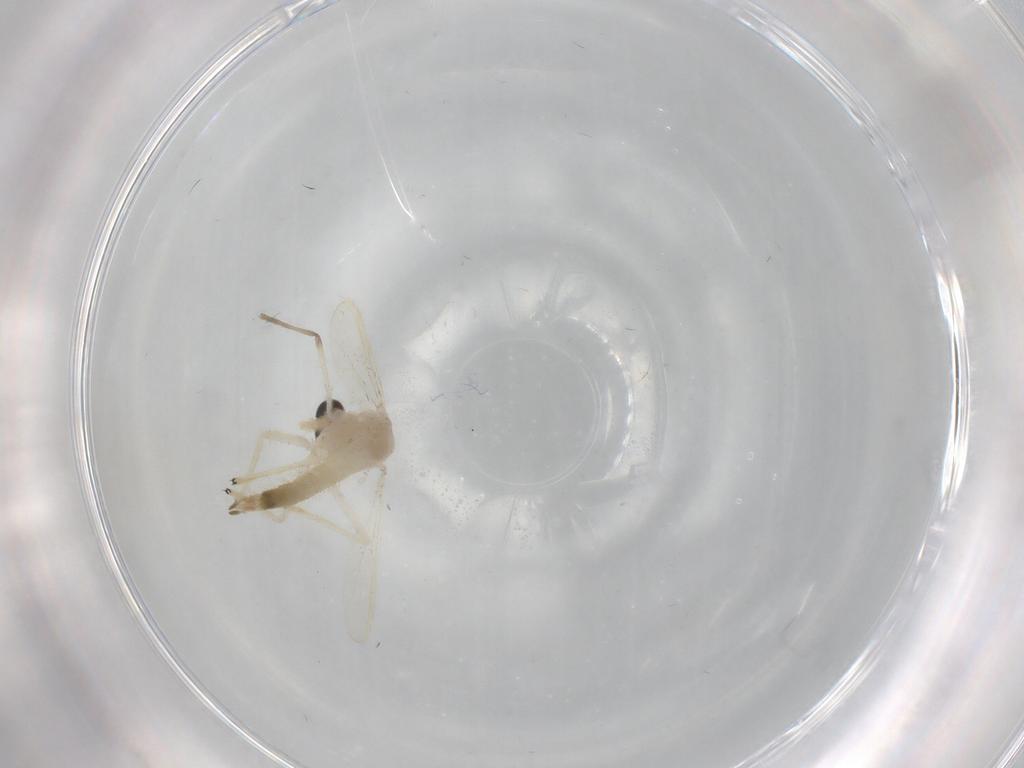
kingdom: Animalia
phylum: Arthropoda
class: Insecta
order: Diptera
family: Chironomidae
